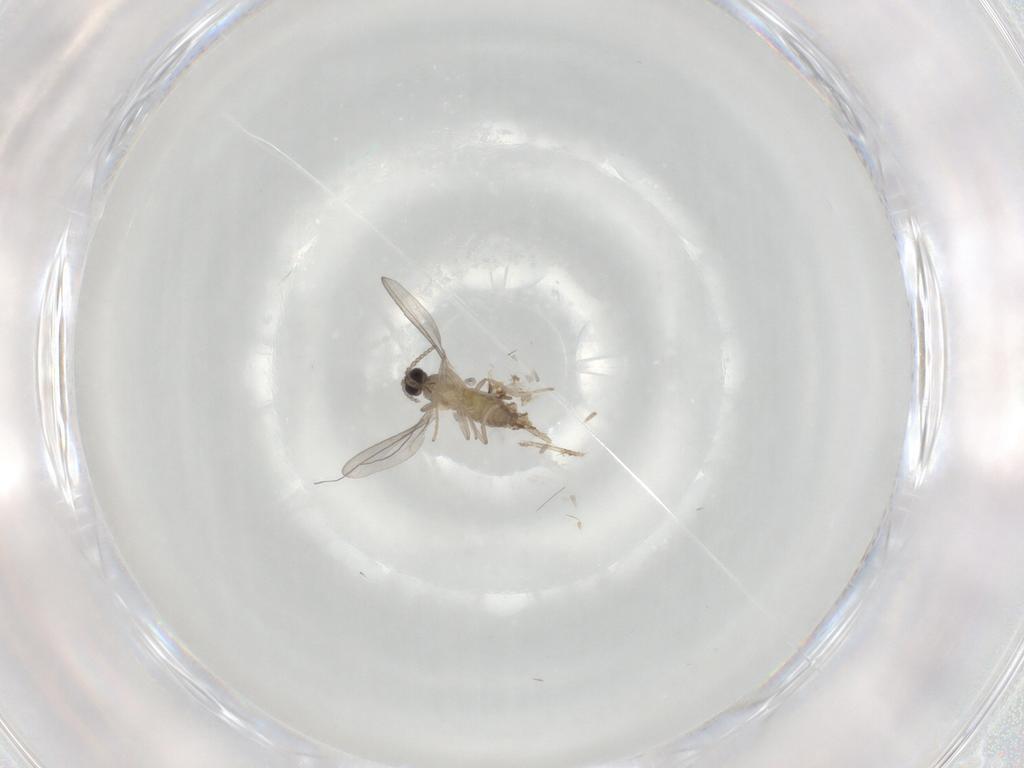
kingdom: Animalia
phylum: Arthropoda
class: Insecta
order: Diptera
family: Cecidomyiidae
